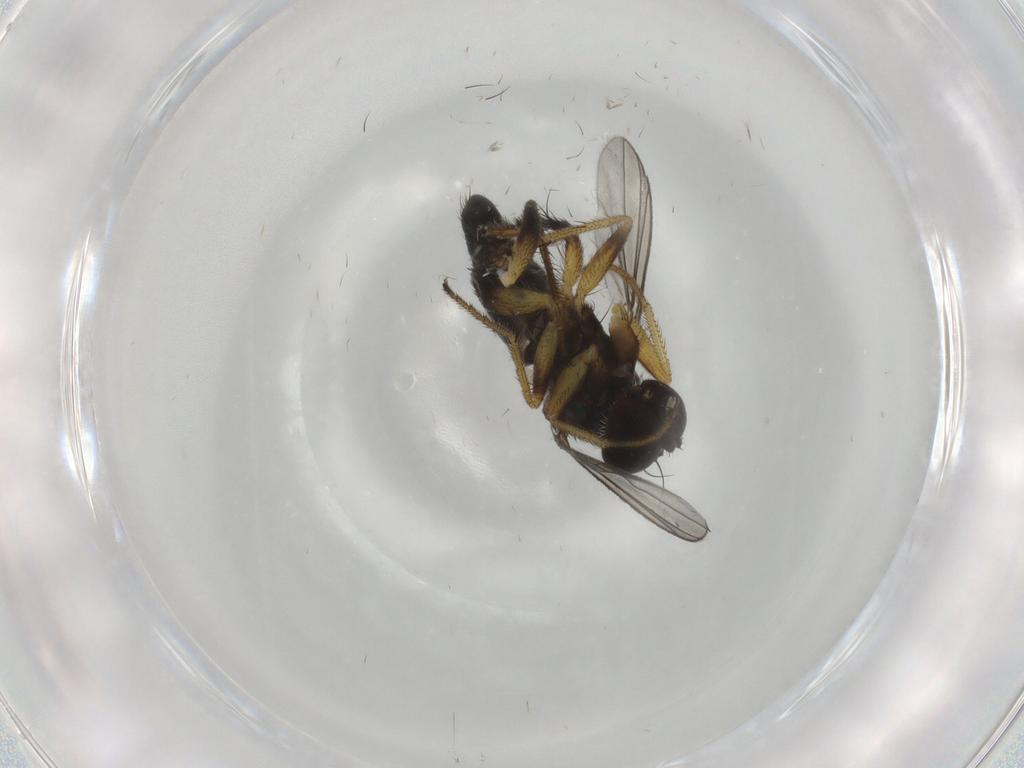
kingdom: Animalia
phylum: Arthropoda
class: Insecta
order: Diptera
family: Dolichopodidae
